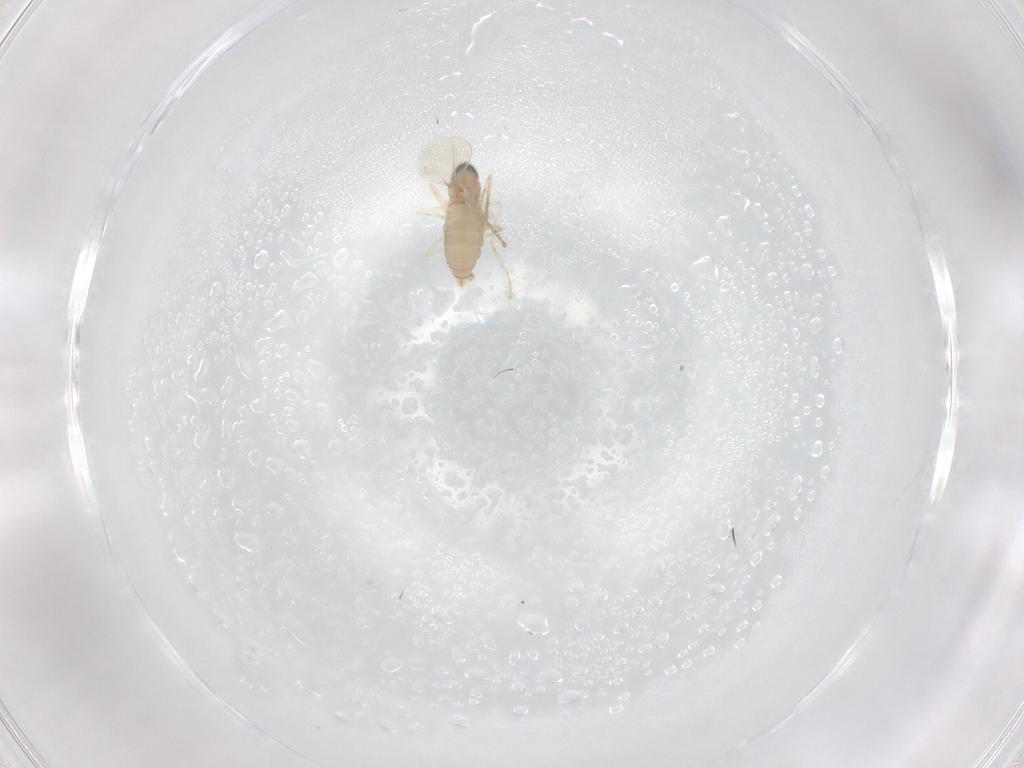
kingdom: Animalia
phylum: Arthropoda
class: Insecta
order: Diptera
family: Cecidomyiidae
